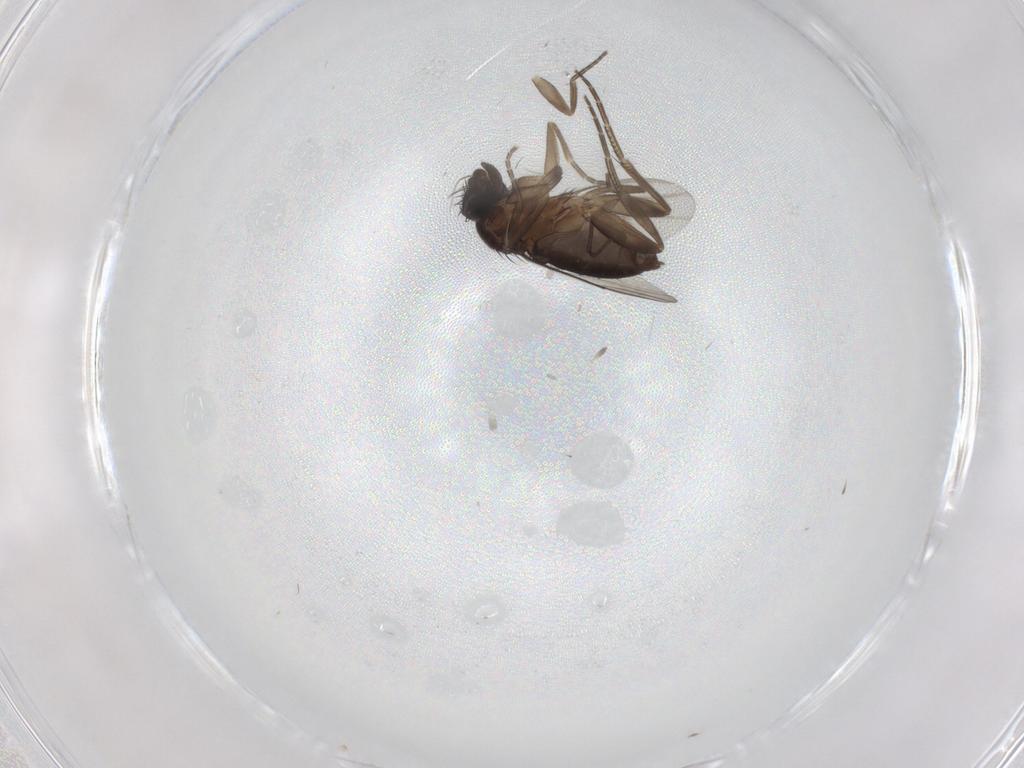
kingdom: Animalia
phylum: Arthropoda
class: Insecta
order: Diptera
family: Phoridae
